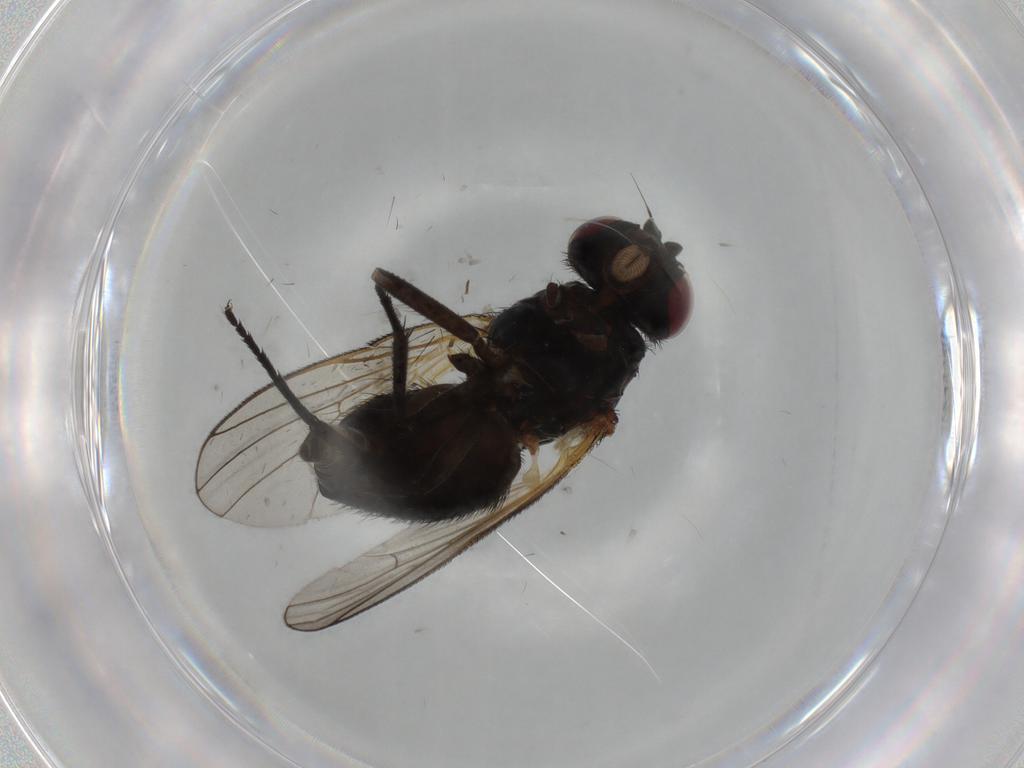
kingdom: Animalia
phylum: Arthropoda
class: Insecta
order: Diptera
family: Fannia
